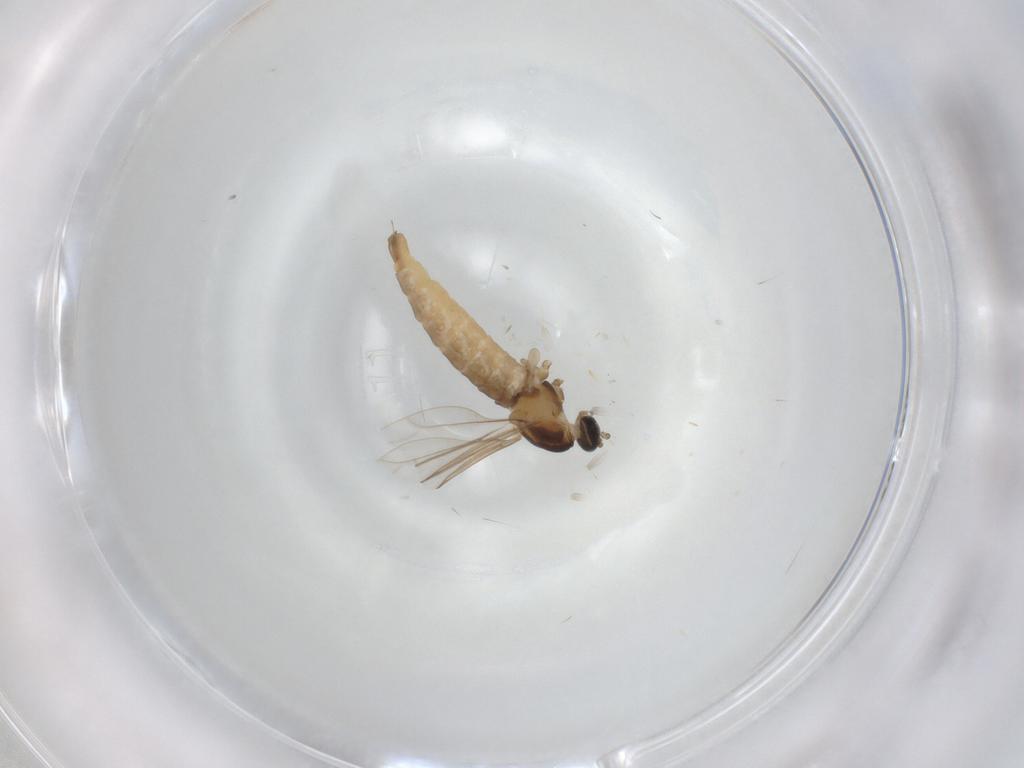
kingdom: Animalia
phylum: Arthropoda
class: Insecta
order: Diptera
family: Cecidomyiidae
